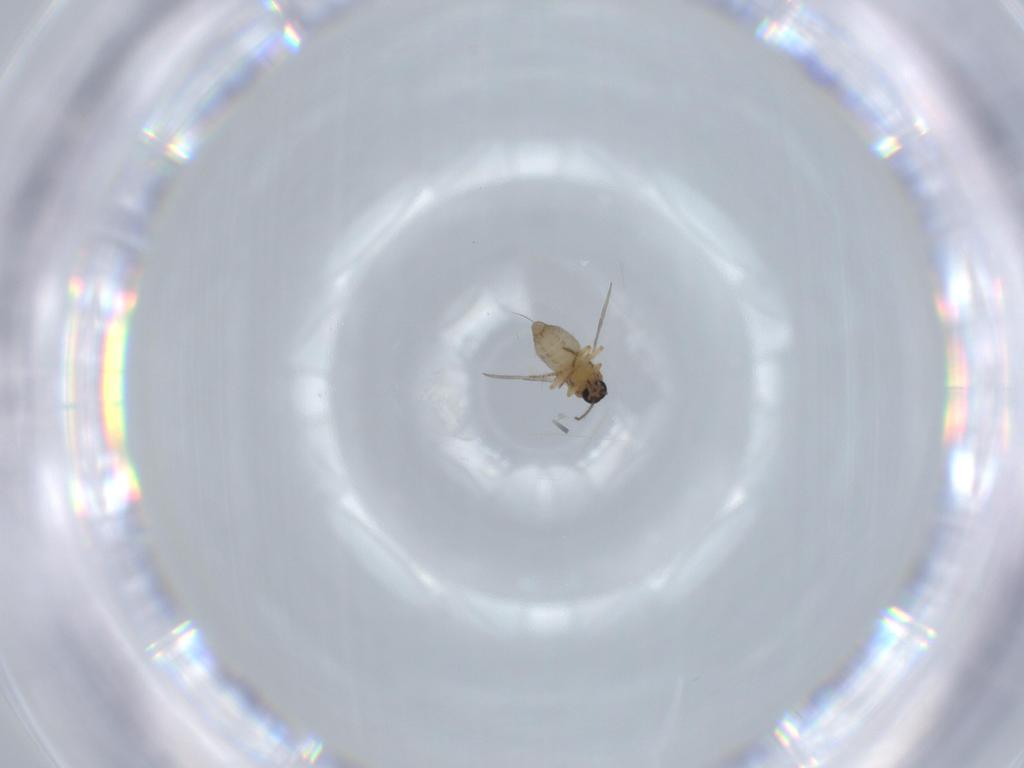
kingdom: Animalia
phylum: Arthropoda
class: Insecta
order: Diptera
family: Ceratopogonidae
